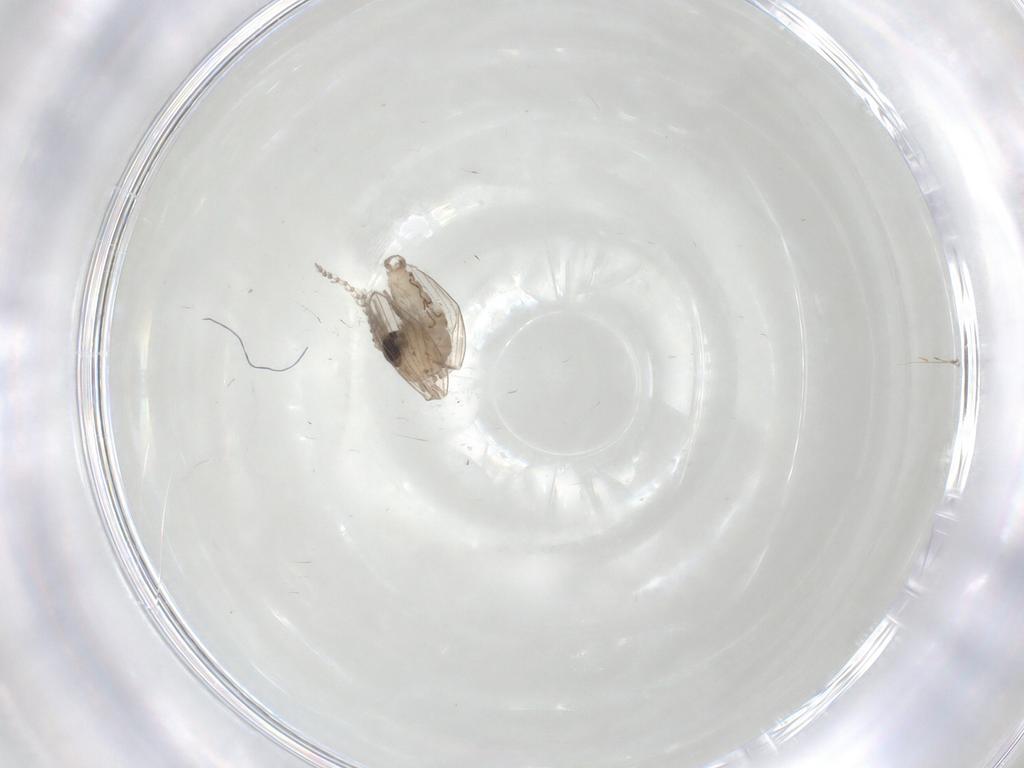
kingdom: Animalia
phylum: Arthropoda
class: Insecta
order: Diptera
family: Psychodidae
